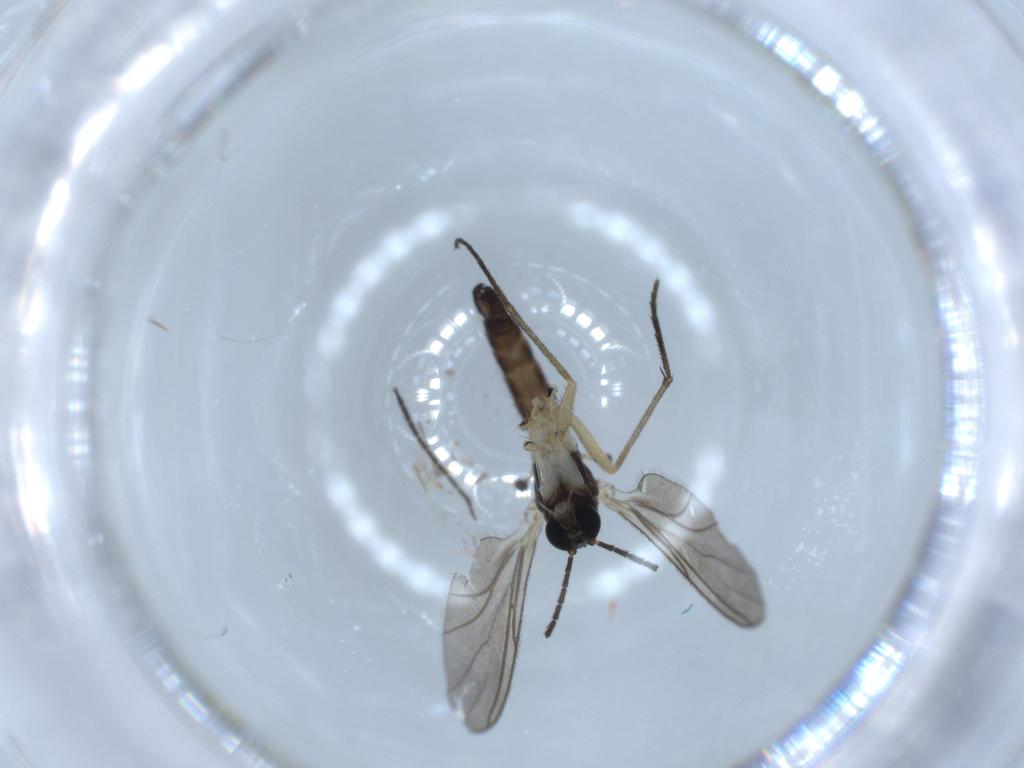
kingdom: Animalia
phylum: Arthropoda
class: Insecta
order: Diptera
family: Sciaridae
